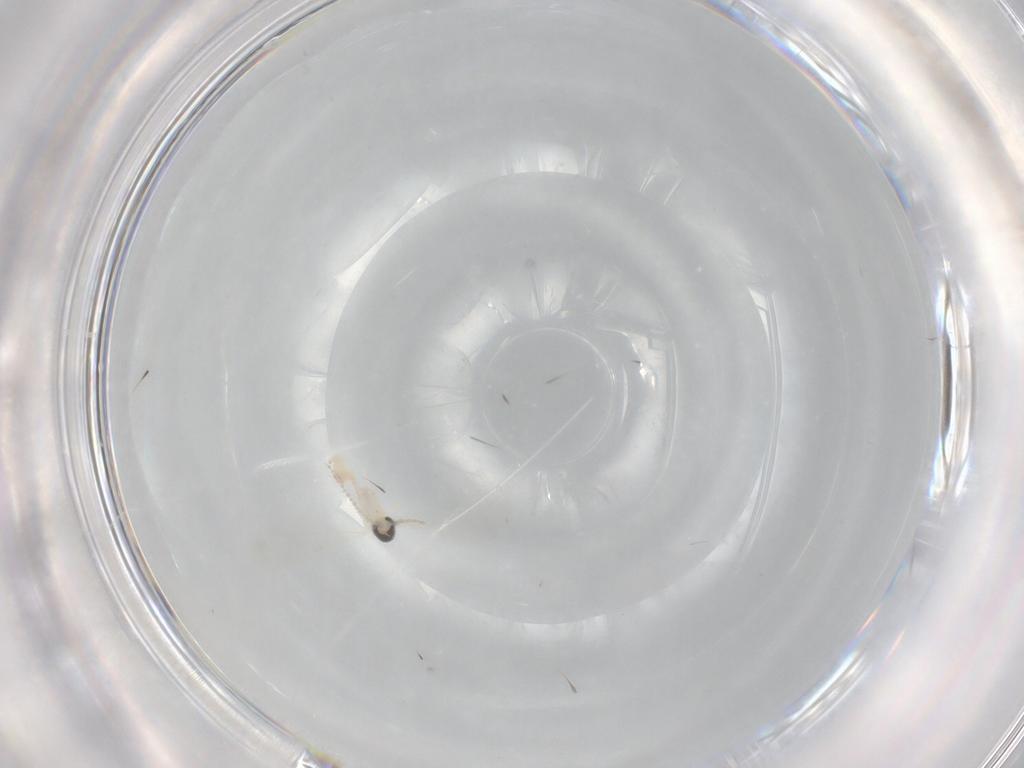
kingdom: Animalia
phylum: Arthropoda
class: Insecta
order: Diptera
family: Cecidomyiidae
